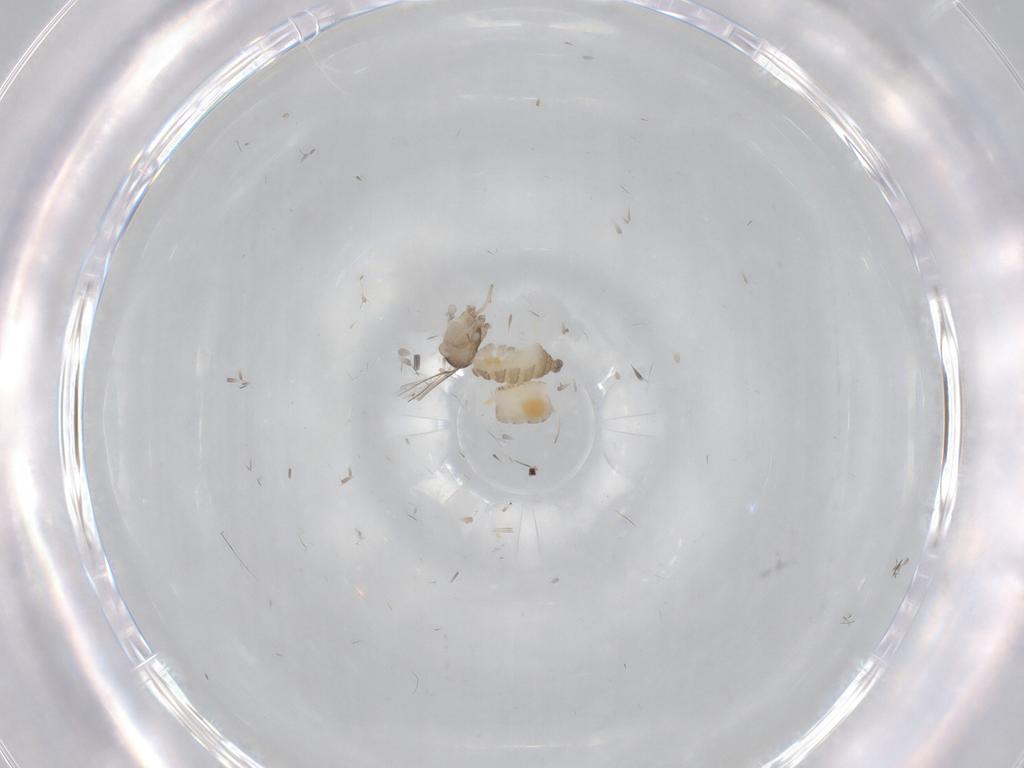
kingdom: Animalia
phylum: Arthropoda
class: Insecta
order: Diptera
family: Cecidomyiidae
